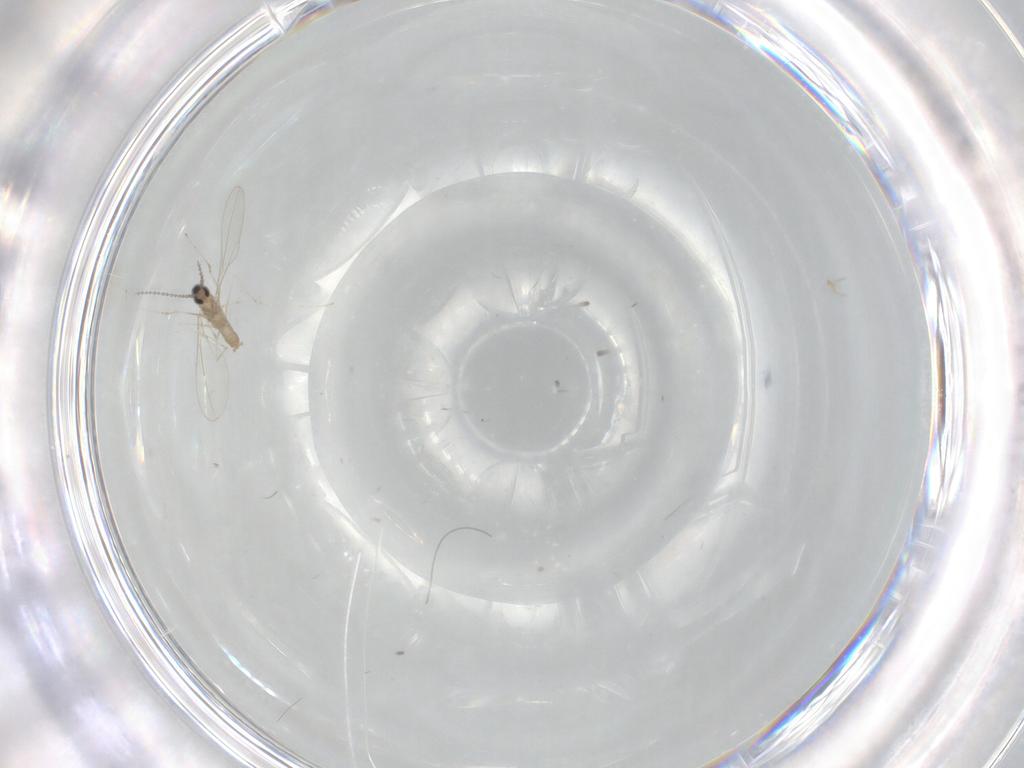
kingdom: Animalia
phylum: Arthropoda
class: Insecta
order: Diptera
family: Cecidomyiidae
